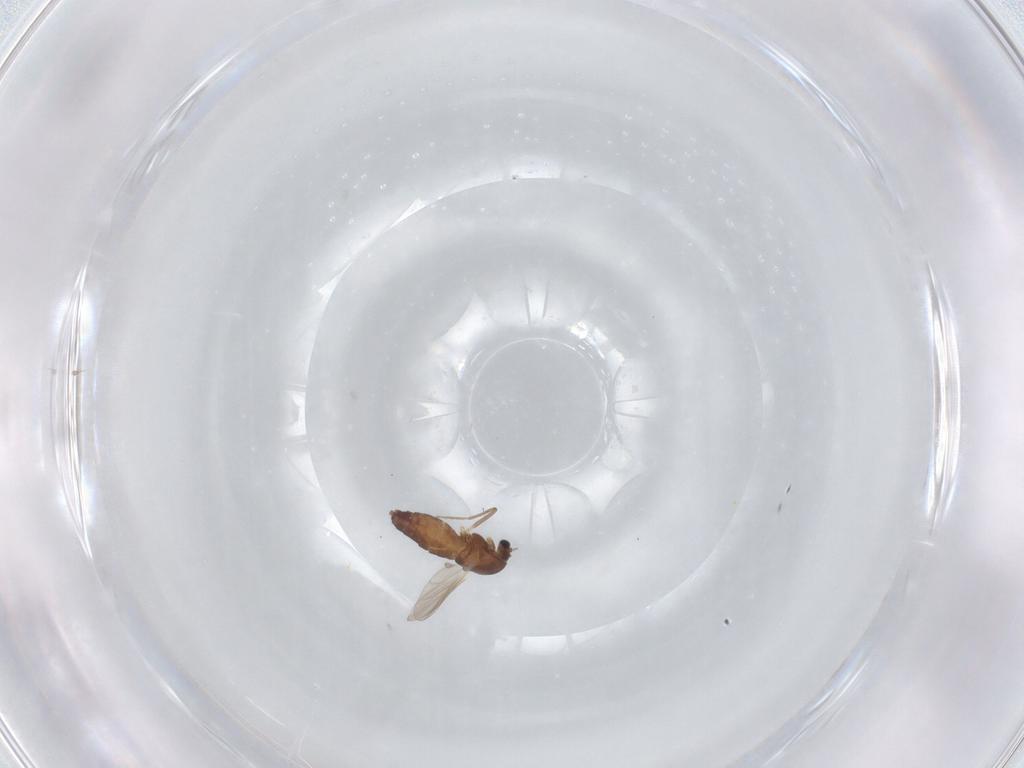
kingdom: Animalia
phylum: Arthropoda
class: Insecta
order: Diptera
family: Chironomidae
